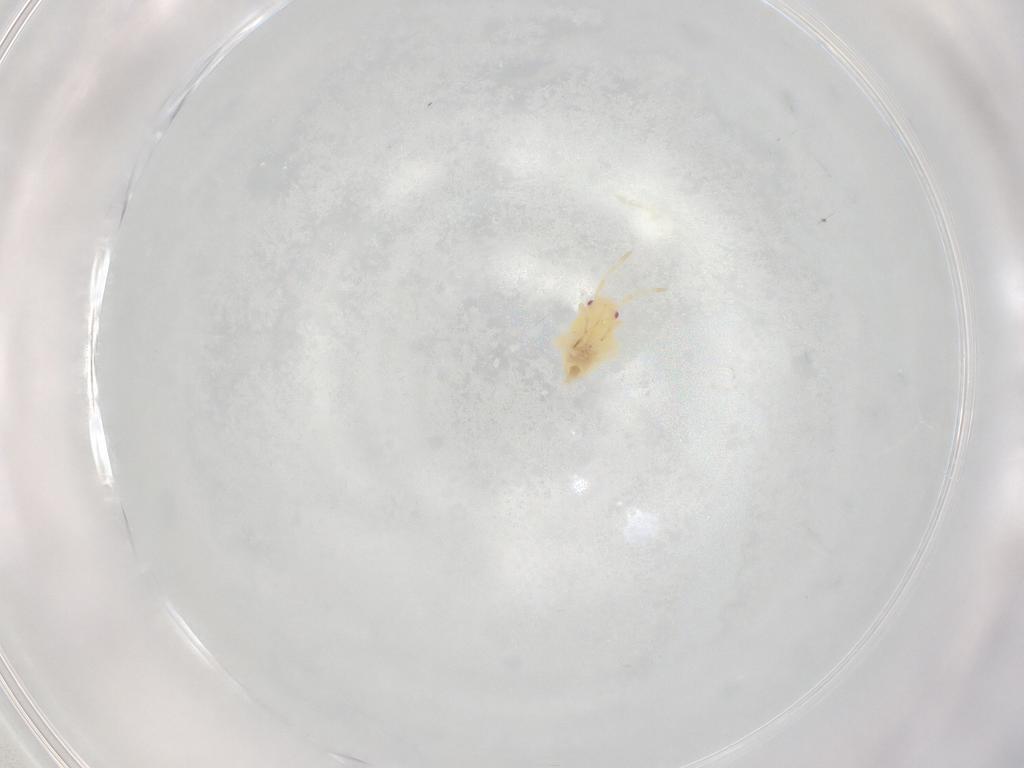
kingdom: Animalia
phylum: Arthropoda
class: Insecta
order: Hemiptera
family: Miridae
